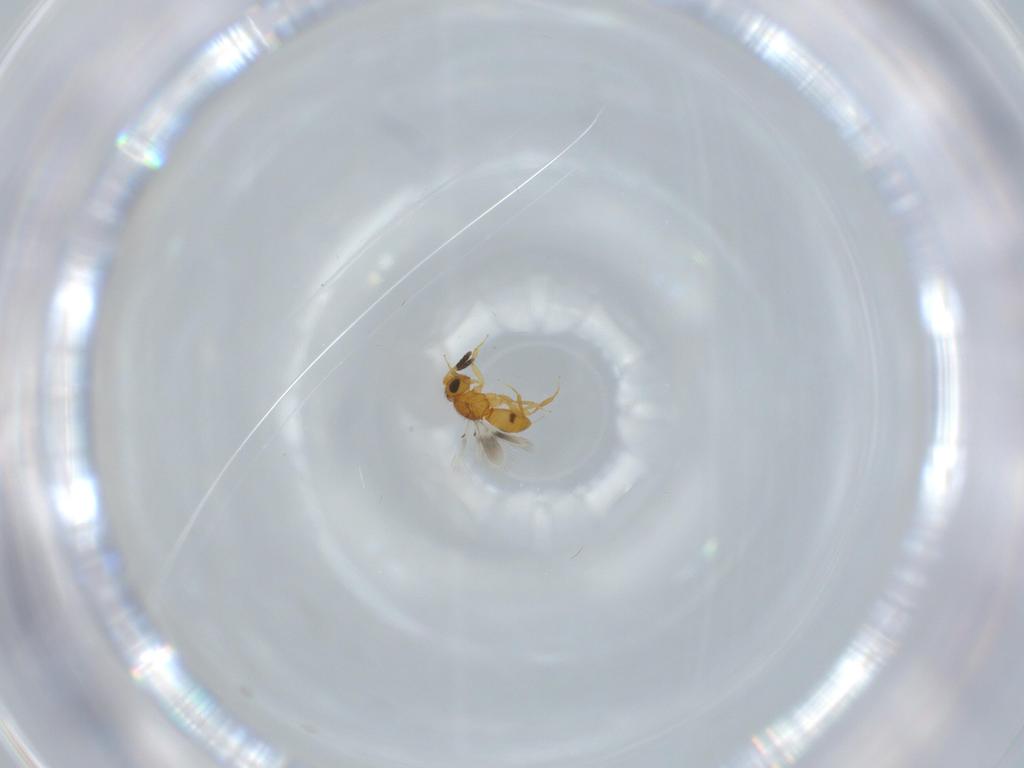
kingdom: Animalia
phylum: Arthropoda
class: Insecta
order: Hymenoptera
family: Scelionidae
